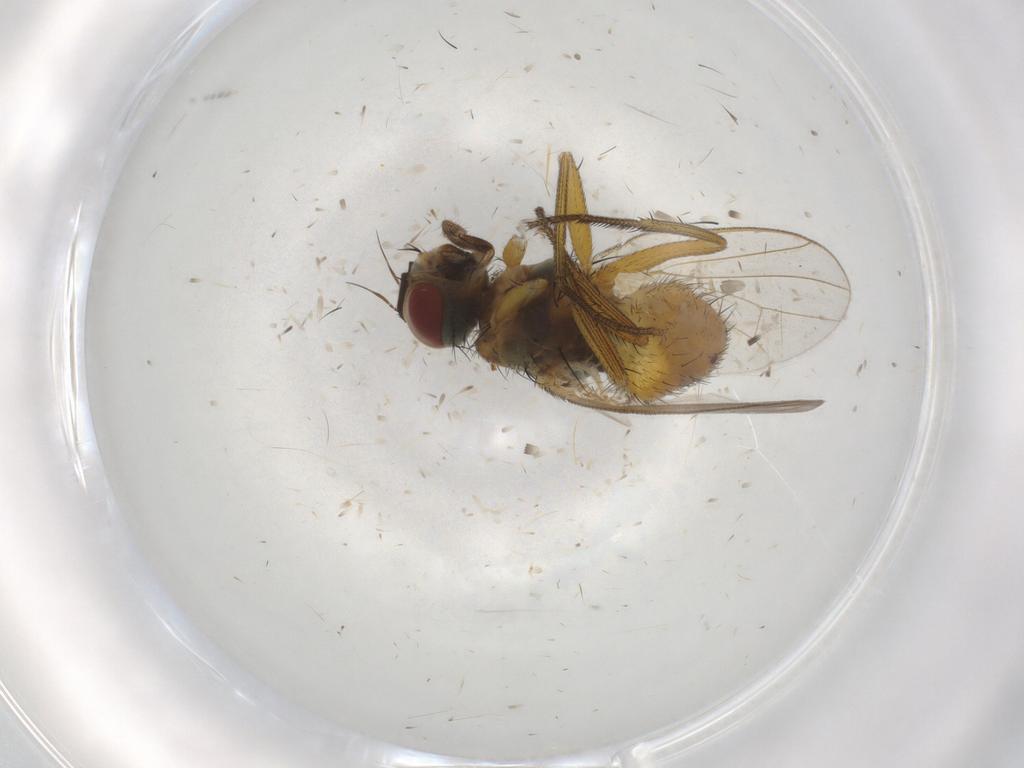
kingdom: Animalia
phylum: Arthropoda
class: Insecta
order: Diptera
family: Muscidae
